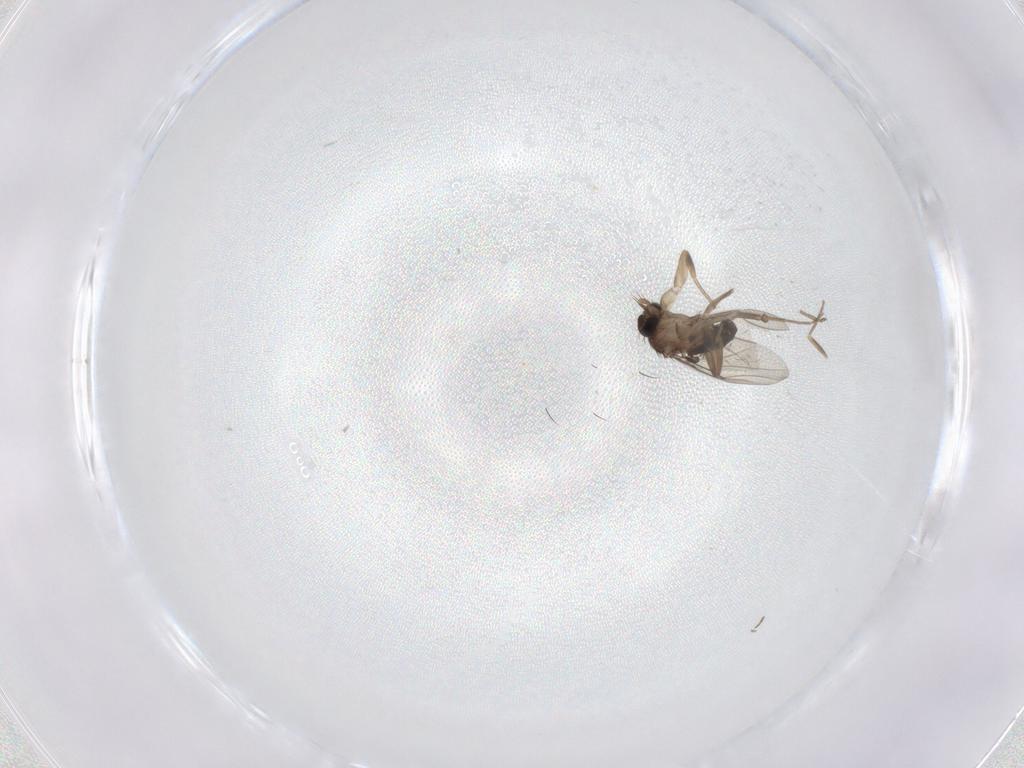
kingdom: Animalia
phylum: Arthropoda
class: Insecta
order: Diptera
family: Phoridae
